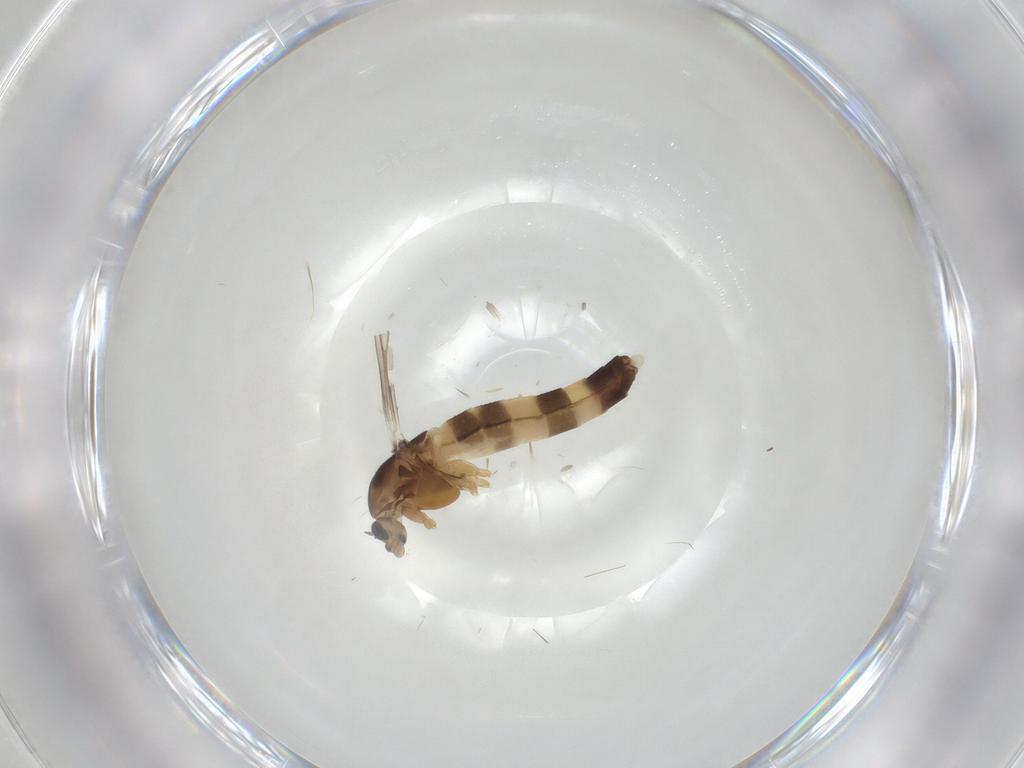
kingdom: Animalia
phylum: Arthropoda
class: Insecta
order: Diptera
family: Chironomidae
